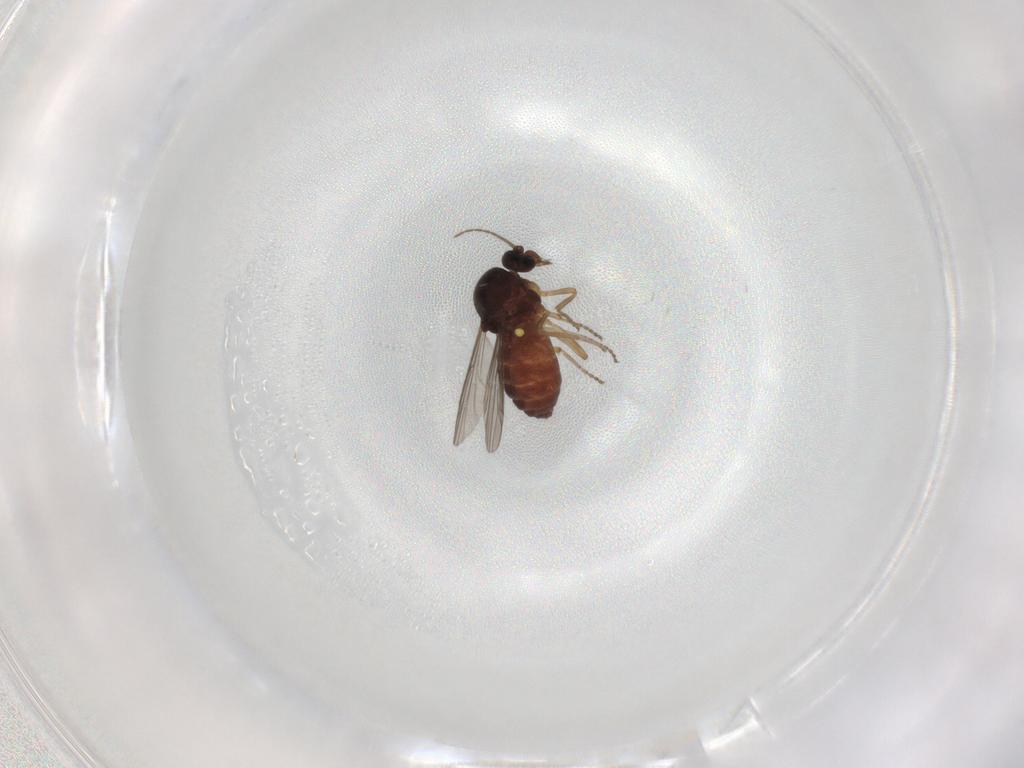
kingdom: Animalia
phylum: Arthropoda
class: Insecta
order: Diptera
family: Ceratopogonidae
